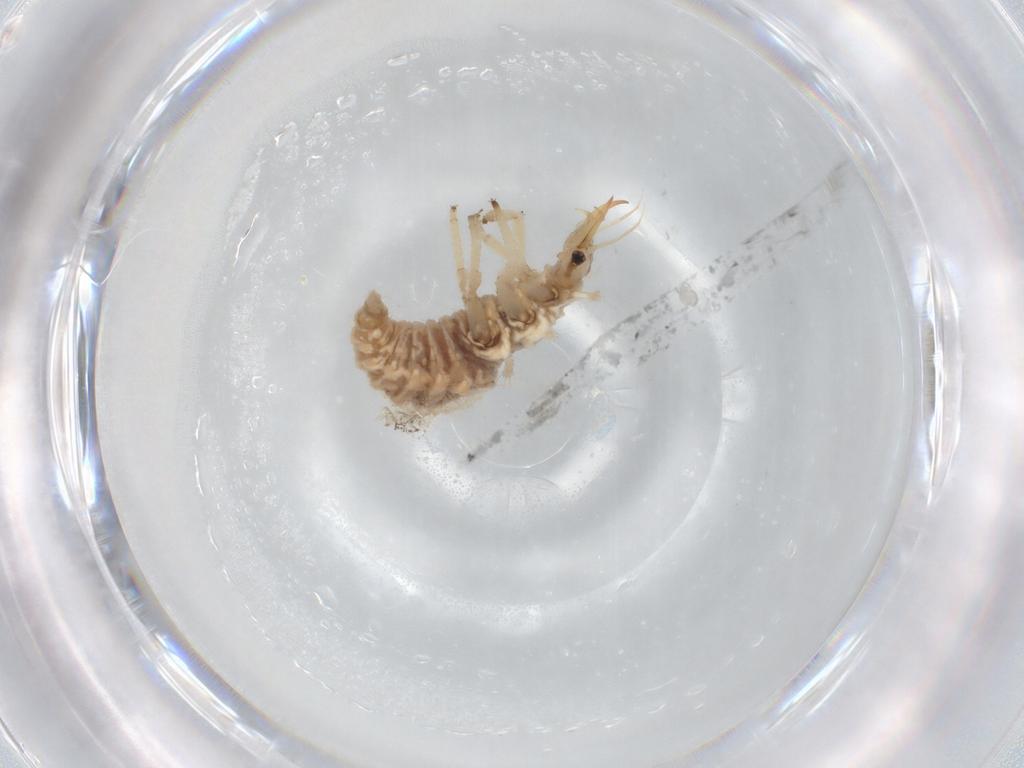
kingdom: Animalia
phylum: Arthropoda
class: Insecta
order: Neuroptera
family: Chrysopidae
